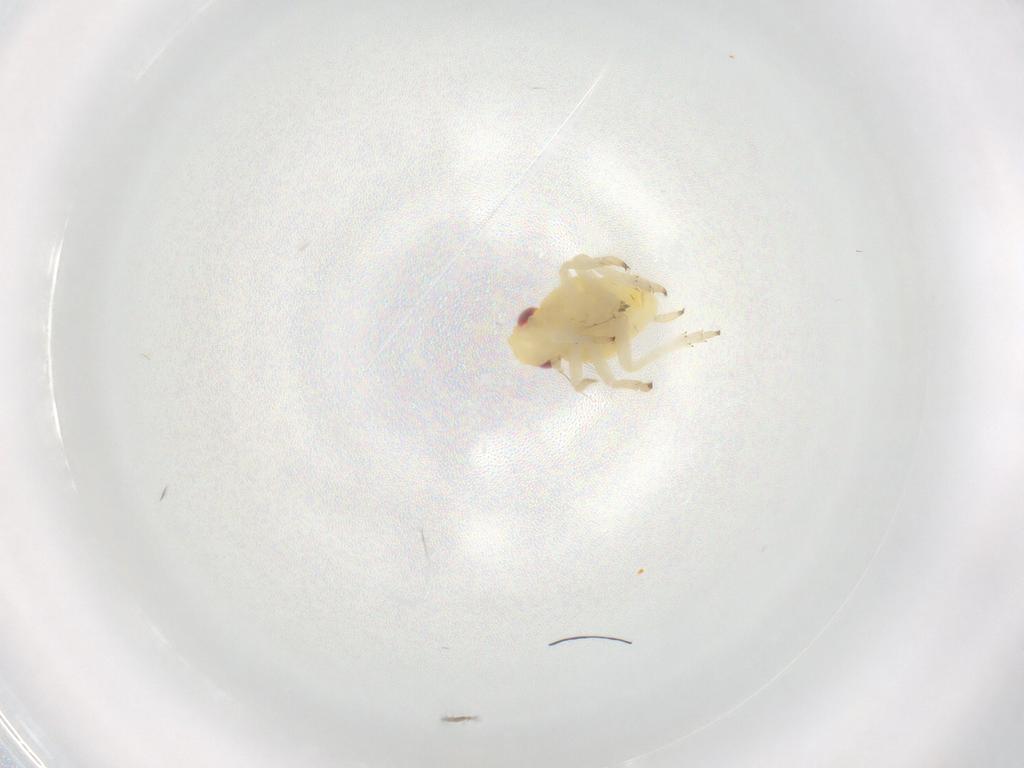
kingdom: Animalia
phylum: Arthropoda
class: Insecta
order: Hemiptera
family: Caliscelidae
